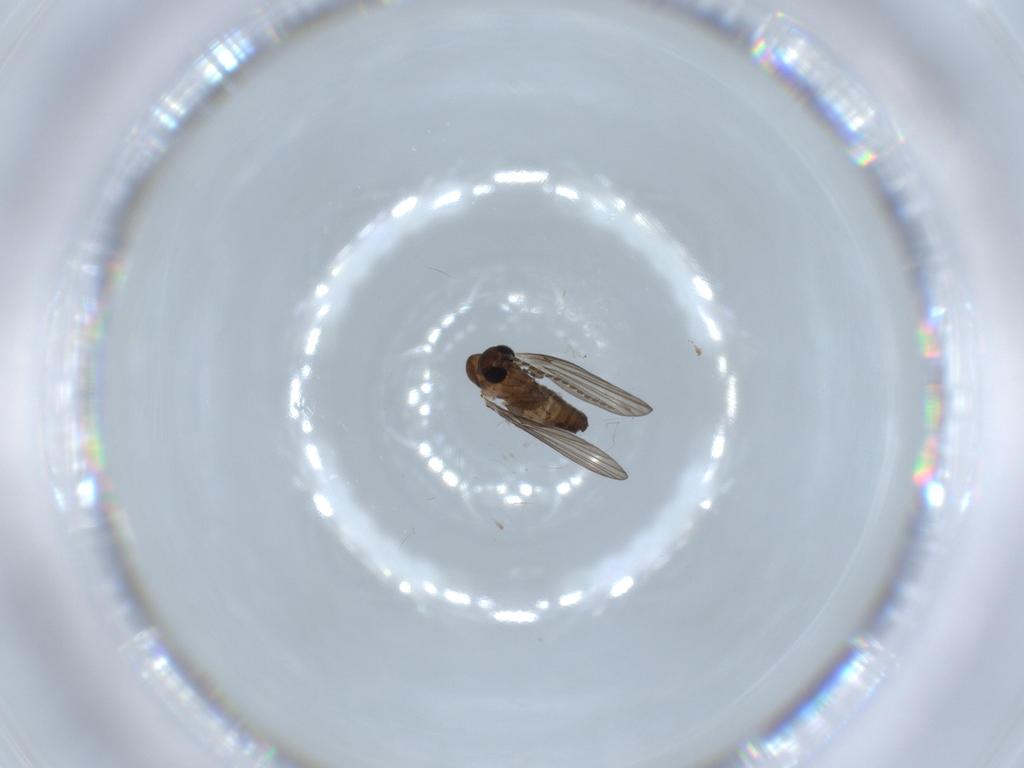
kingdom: Animalia
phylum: Arthropoda
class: Insecta
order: Diptera
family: Psychodidae
